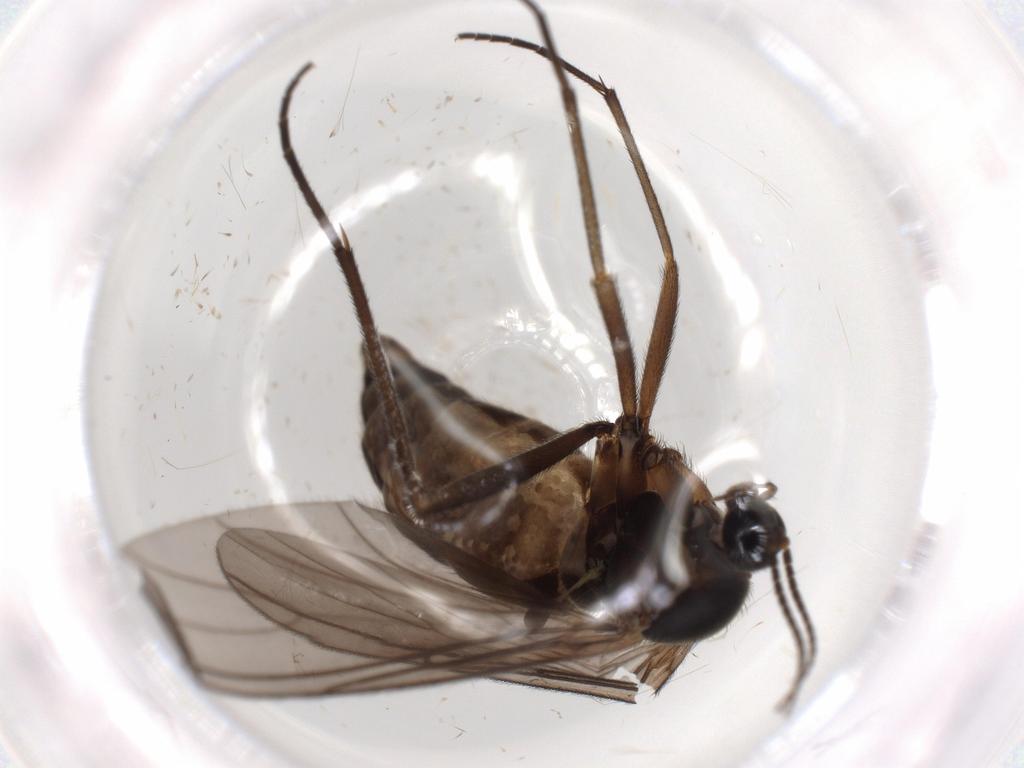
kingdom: Animalia
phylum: Arthropoda
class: Insecta
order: Diptera
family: Sciaridae
